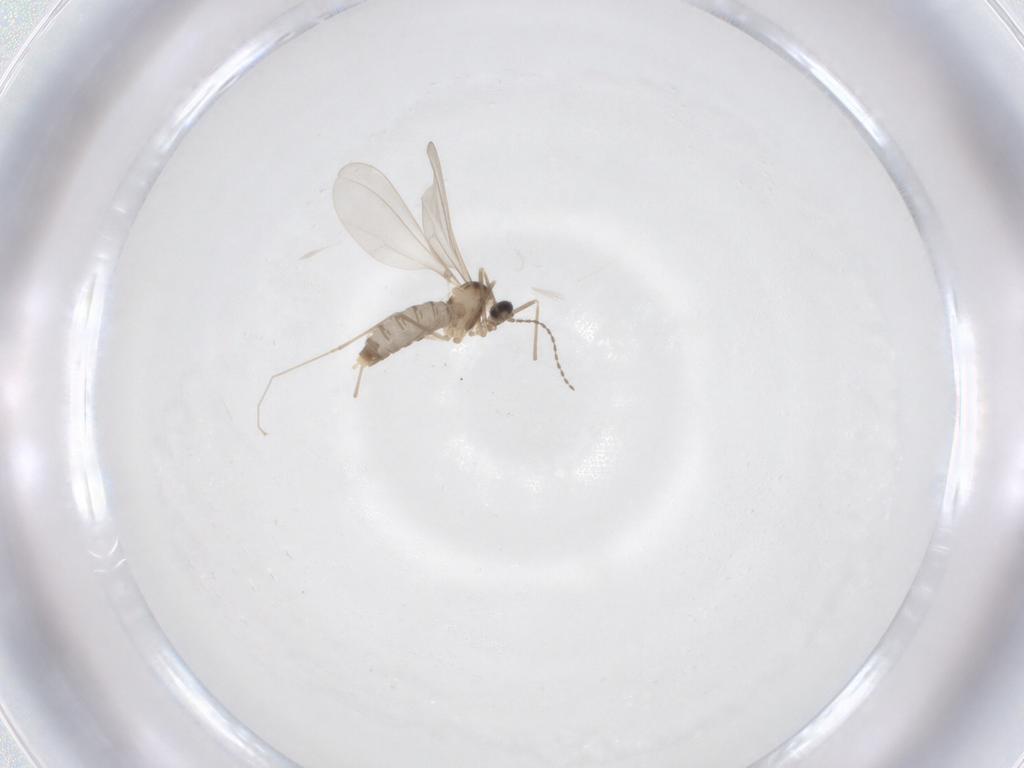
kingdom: Animalia
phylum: Arthropoda
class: Insecta
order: Diptera
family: Cecidomyiidae
